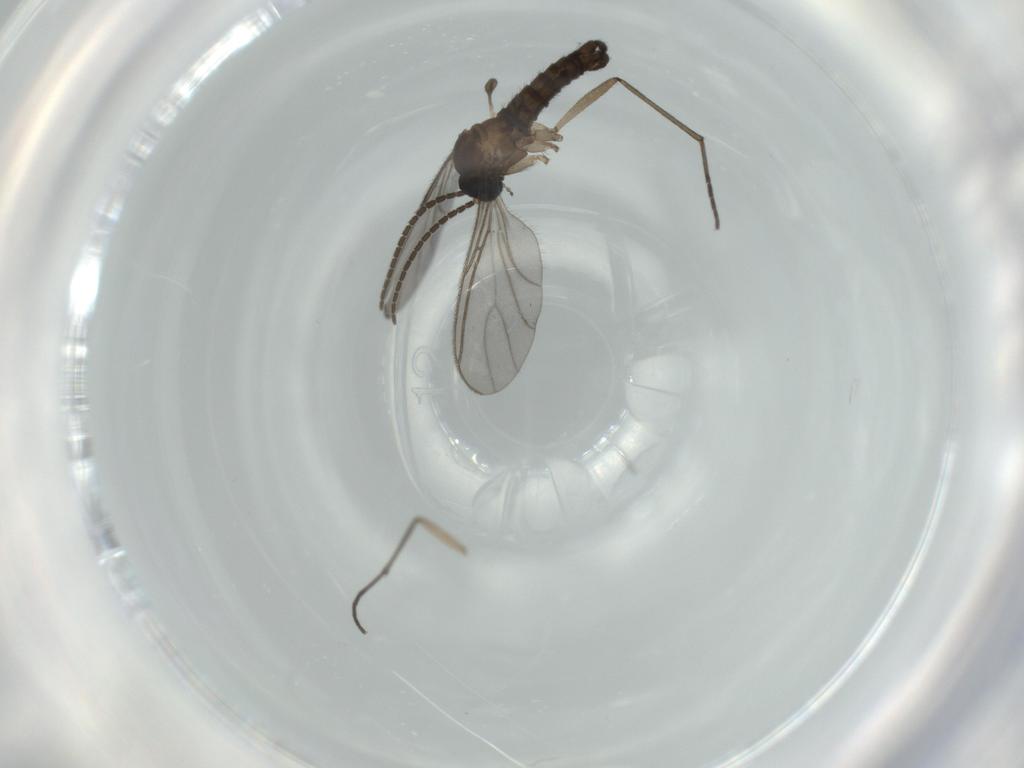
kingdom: Animalia
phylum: Arthropoda
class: Insecta
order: Diptera
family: Sciaridae
